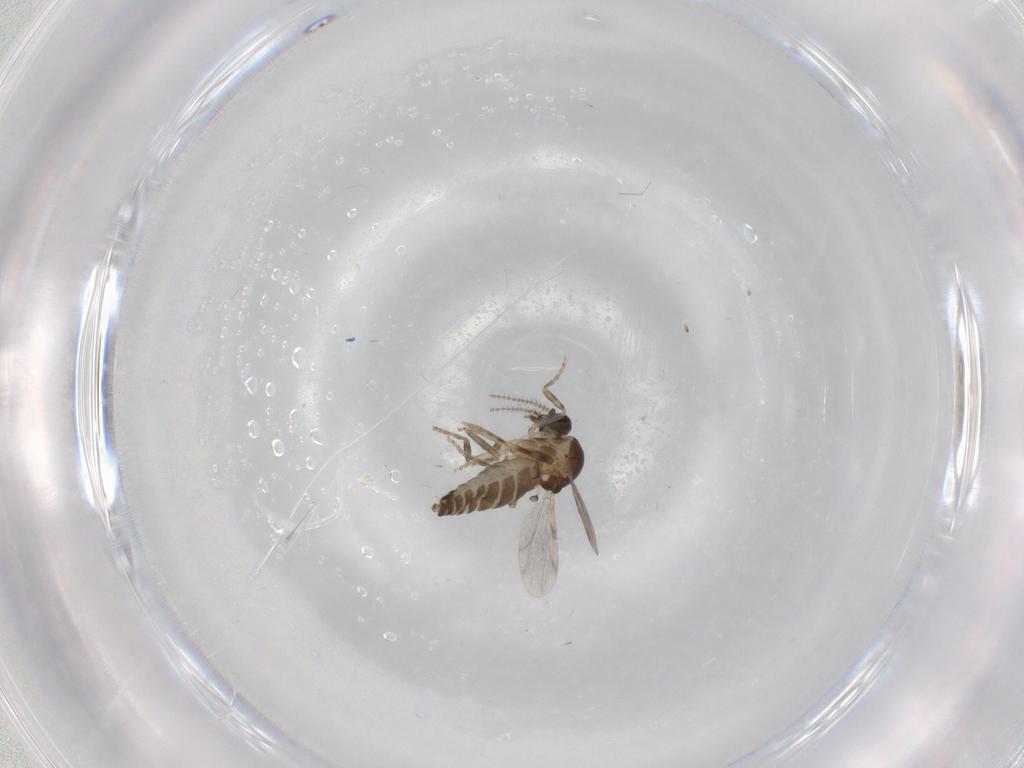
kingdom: Animalia
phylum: Arthropoda
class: Insecta
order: Diptera
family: Ceratopogonidae
